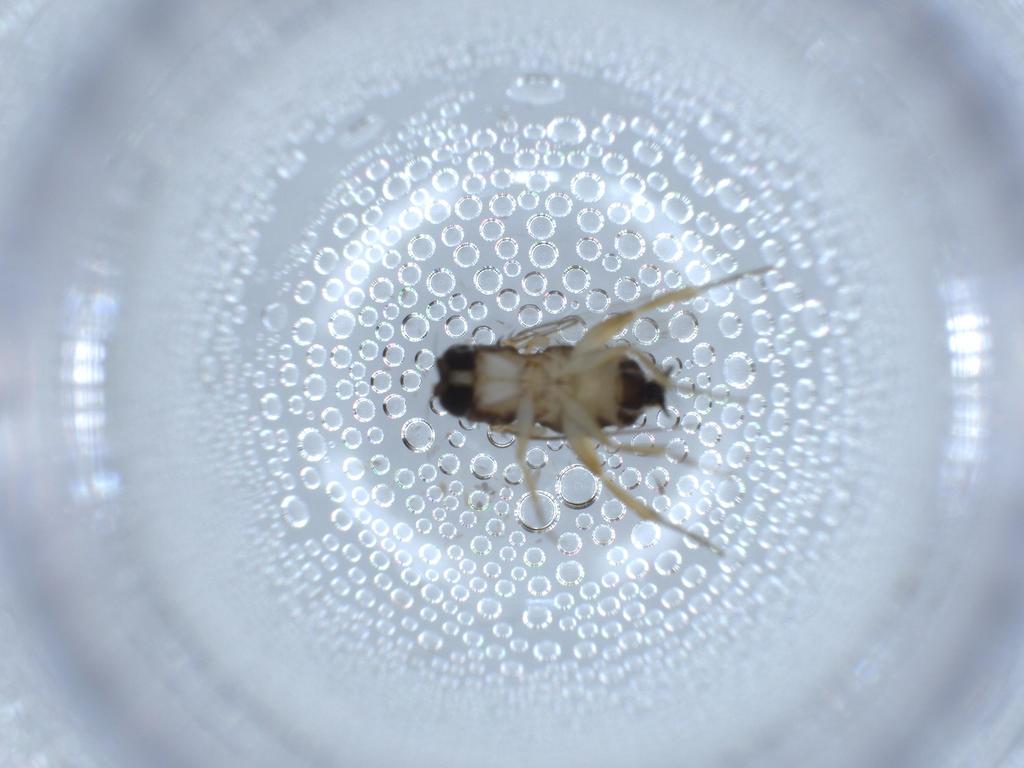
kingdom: Animalia
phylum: Arthropoda
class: Insecta
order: Diptera
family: Phoridae
